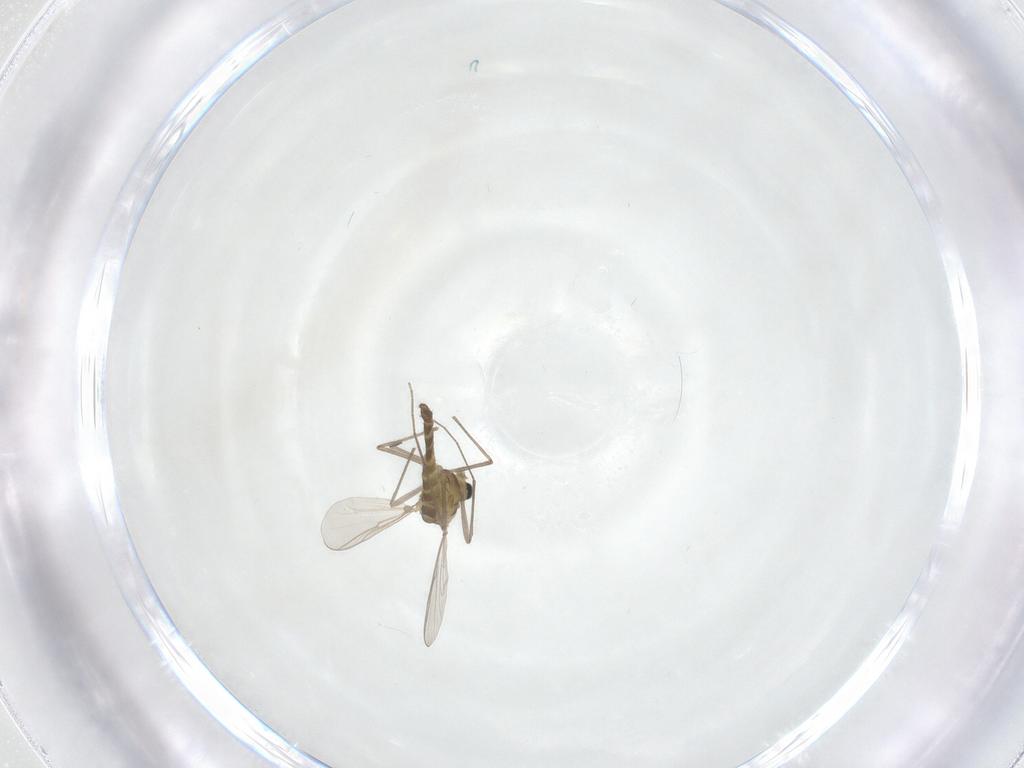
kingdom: Animalia
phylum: Arthropoda
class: Insecta
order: Diptera
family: Chironomidae
